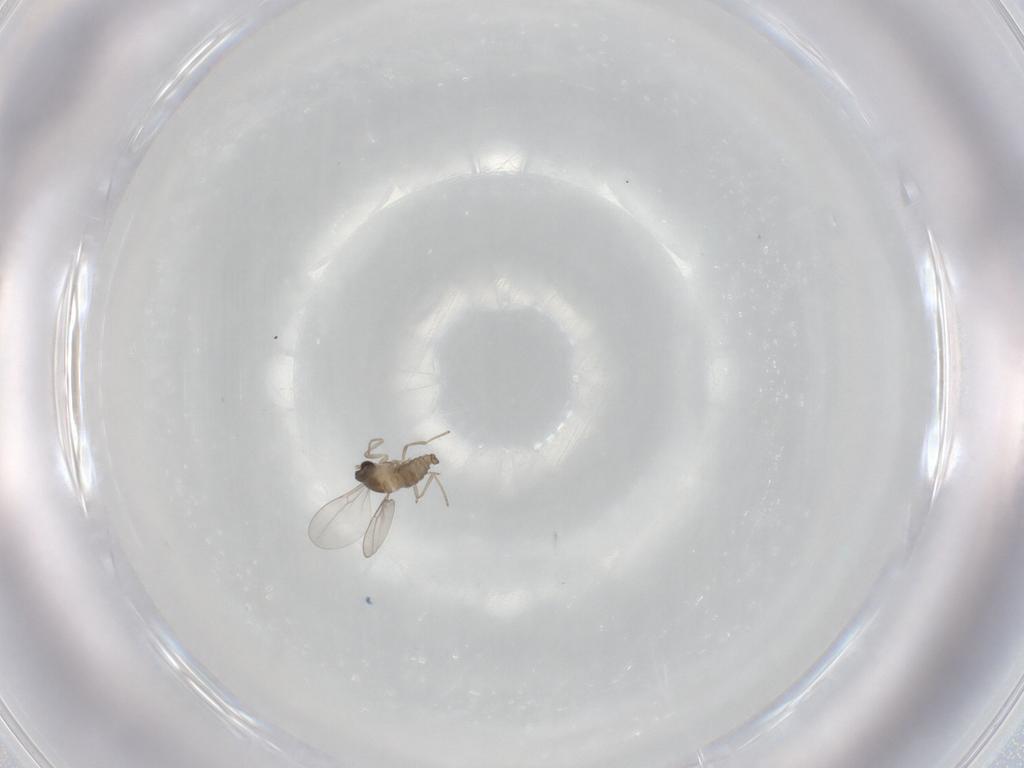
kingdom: Animalia
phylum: Arthropoda
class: Insecta
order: Diptera
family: Cecidomyiidae
